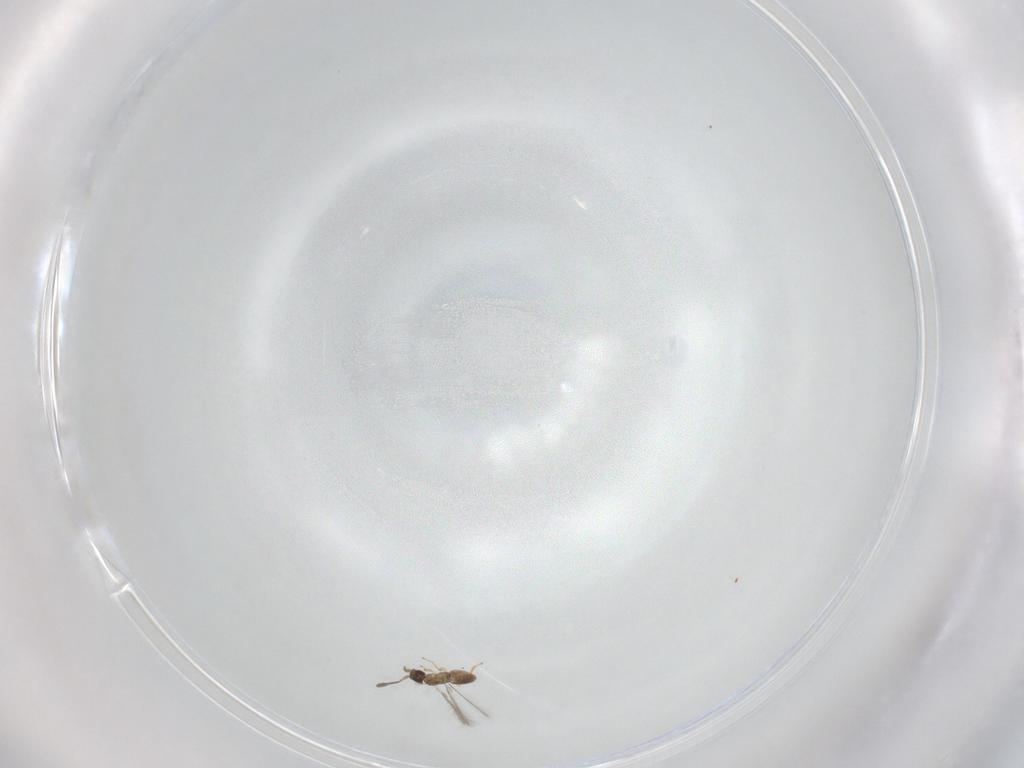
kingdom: Animalia
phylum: Arthropoda
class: Insecta
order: Hymenoptera
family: Mymaridae
